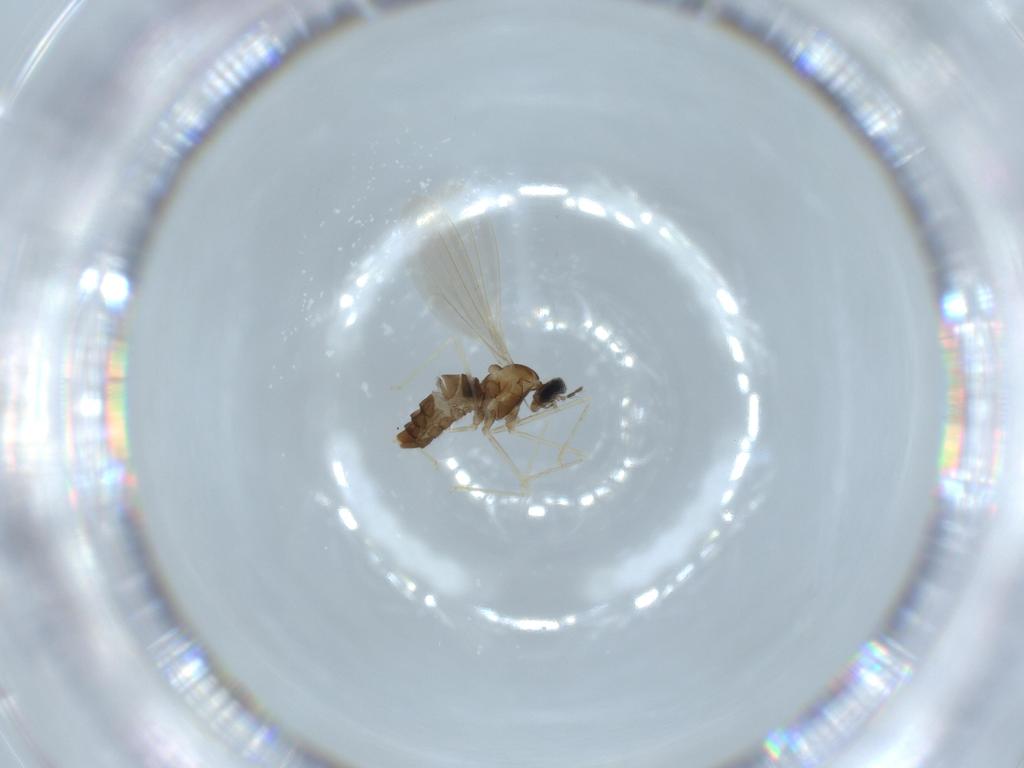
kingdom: Animalia
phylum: Arthropoda
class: Insecta
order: Diptera
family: Cecidomyiidae
